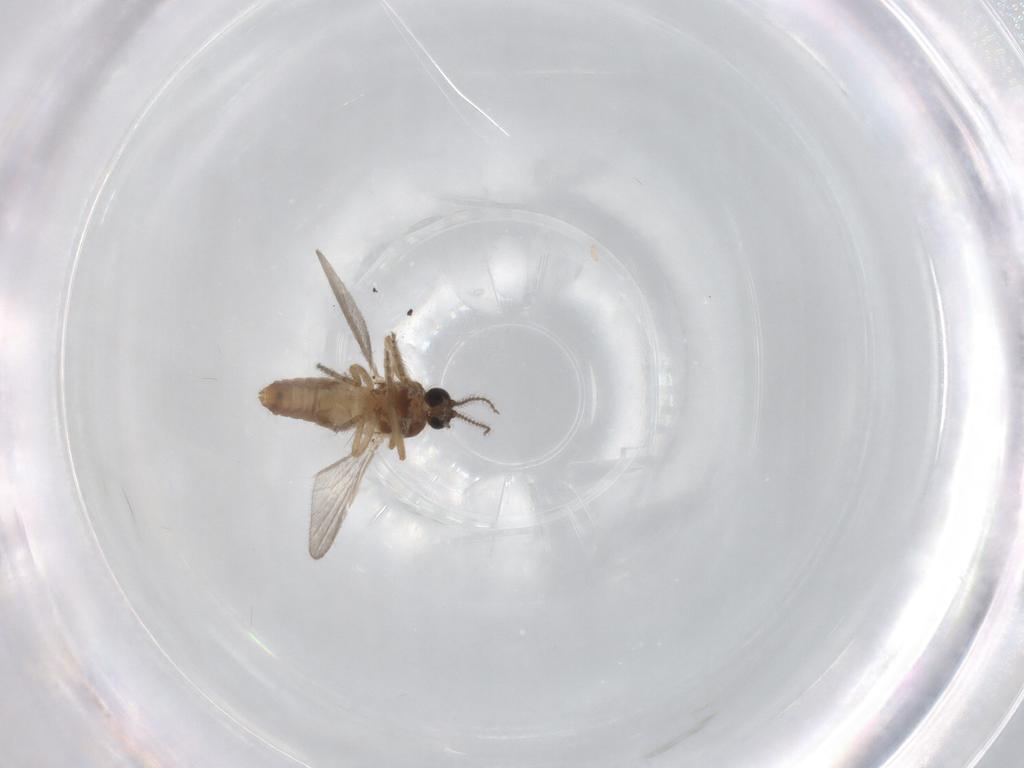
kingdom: Animalia
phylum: Arthropoda
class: Insecta
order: Diptera
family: Ceratopogonidae
